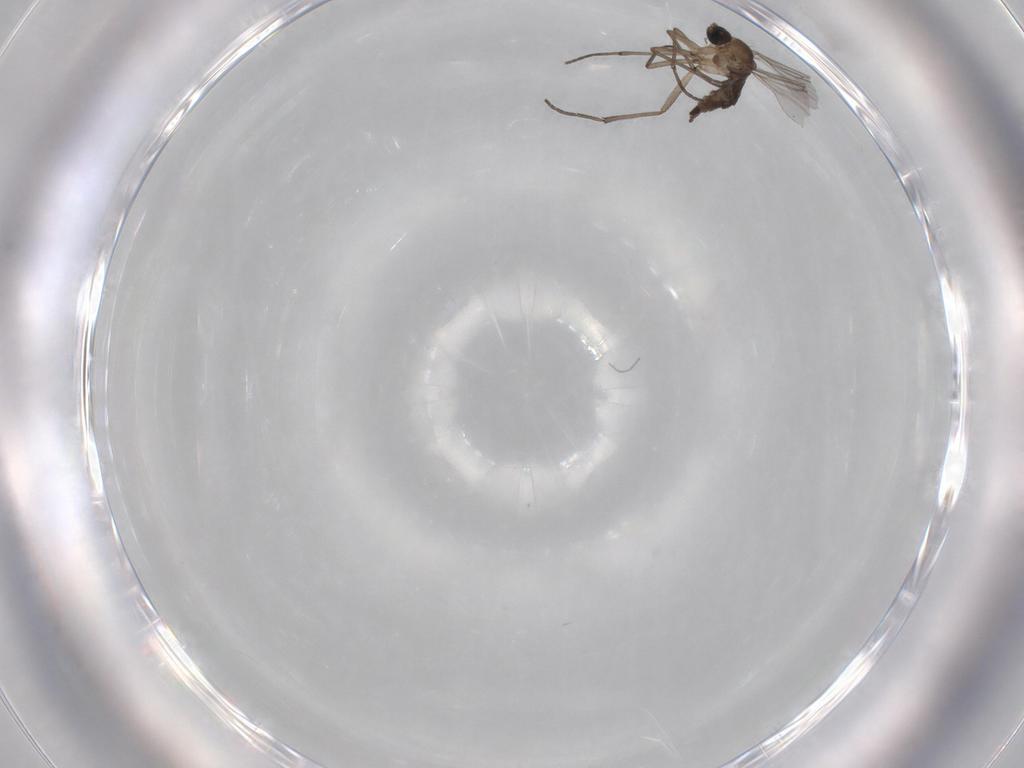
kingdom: Animalia
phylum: Arthropoda
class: Insecta
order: Diptera
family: Sciaridae
